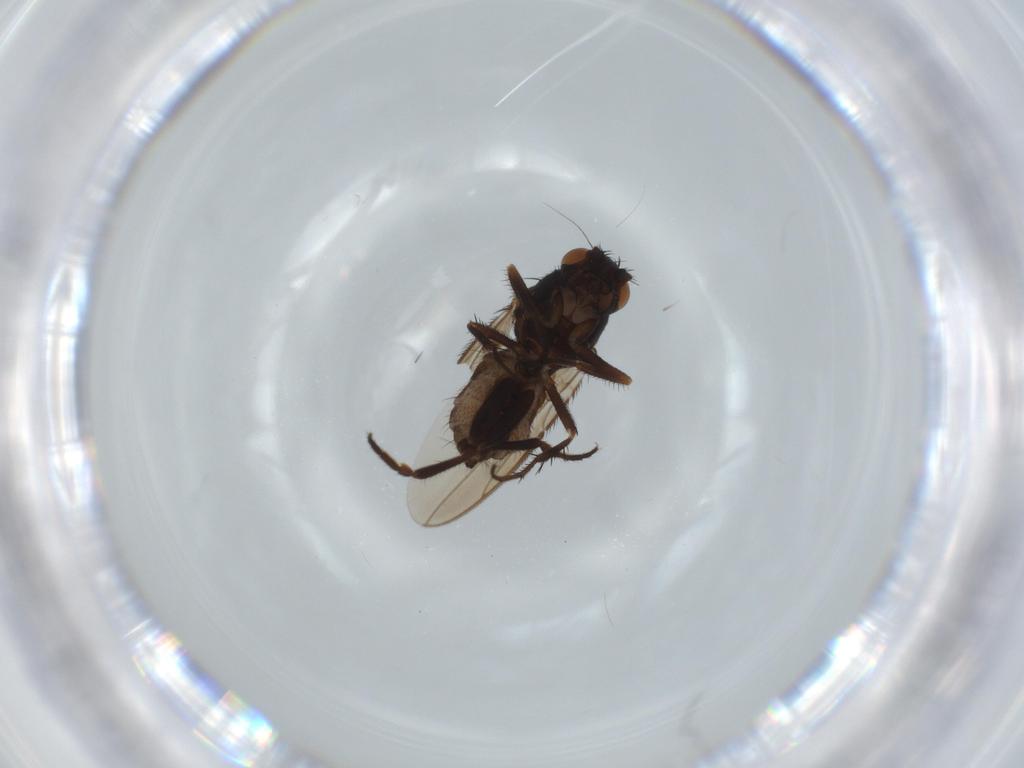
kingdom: Animalia
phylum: Arthropoda
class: Insecta
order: Diptera
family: Sphaeroceridae
